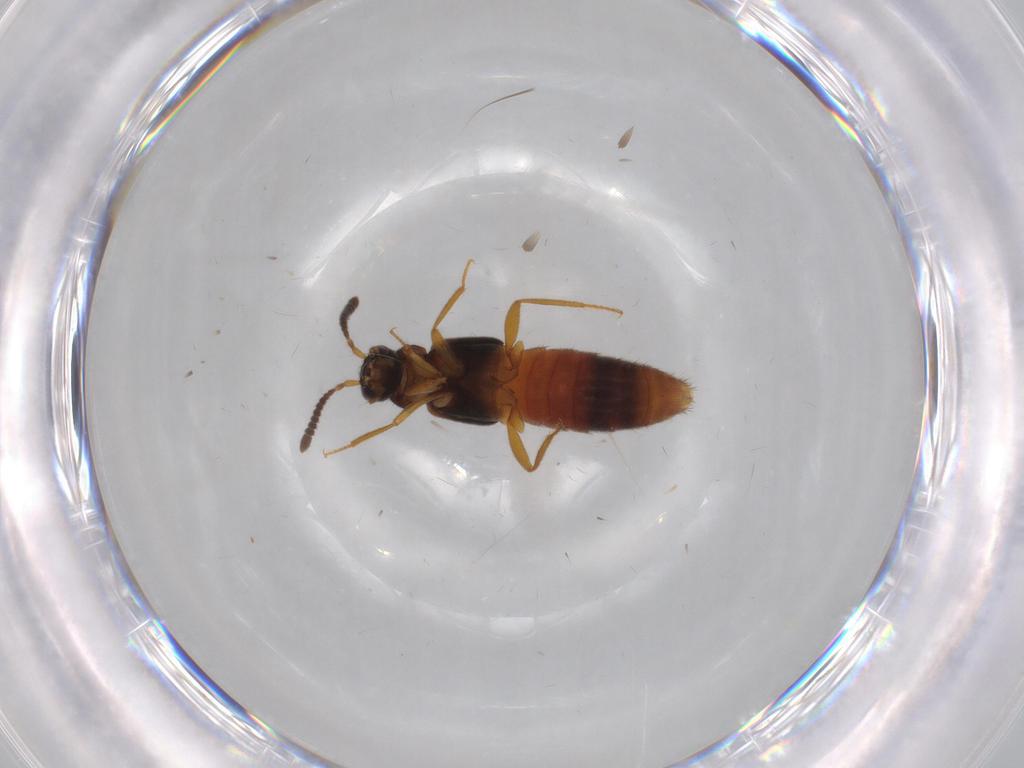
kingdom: Animalia
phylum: Arthropoda
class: Insecta
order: Coleoptera
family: Staphylinidae
